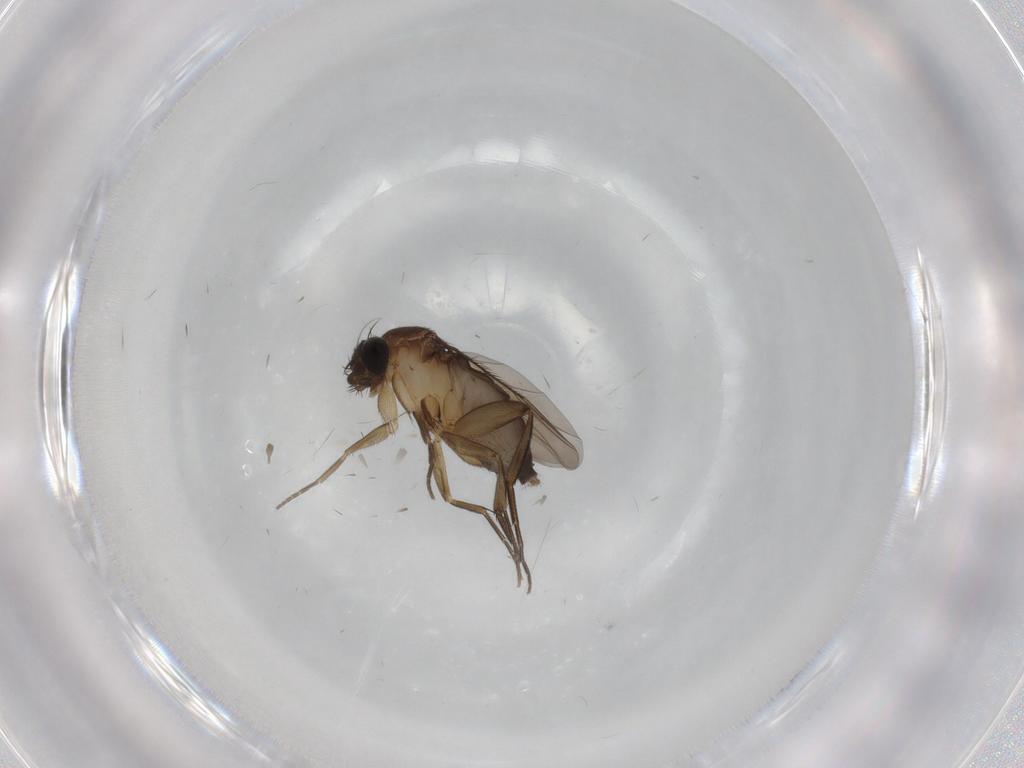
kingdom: Animalia
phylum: Arthropoda
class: Insecta
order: Diptera
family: Phoridae
